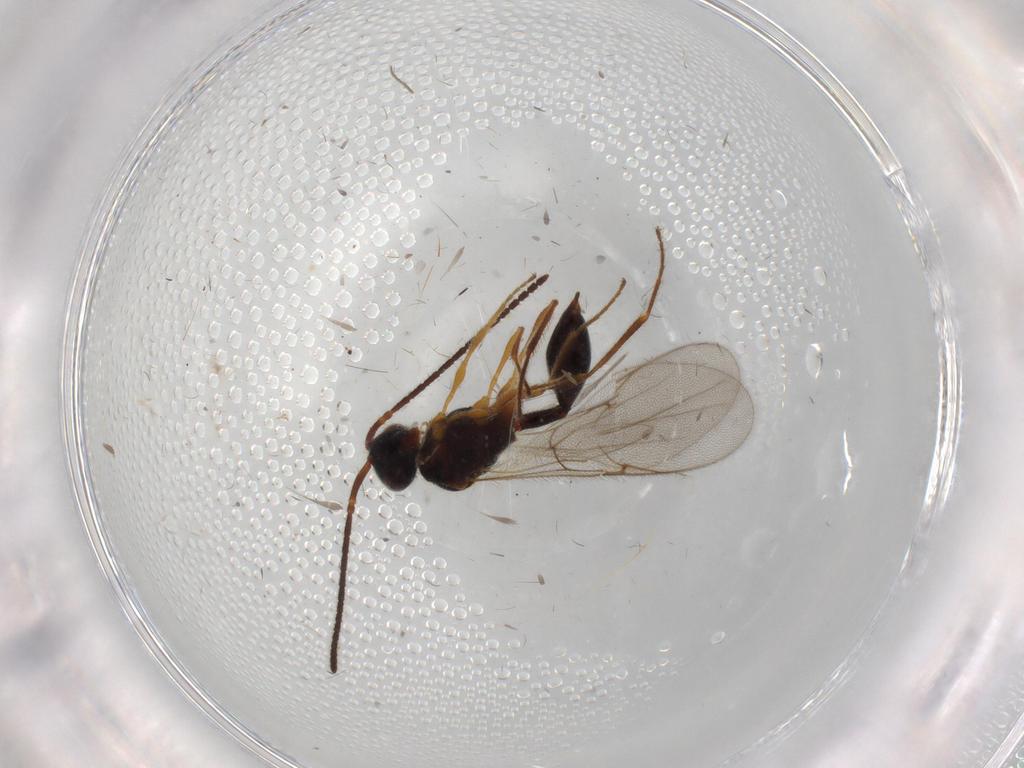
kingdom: Animalia
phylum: Arthropoda
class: Insecta
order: Hymenoptera
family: Diapriidae
